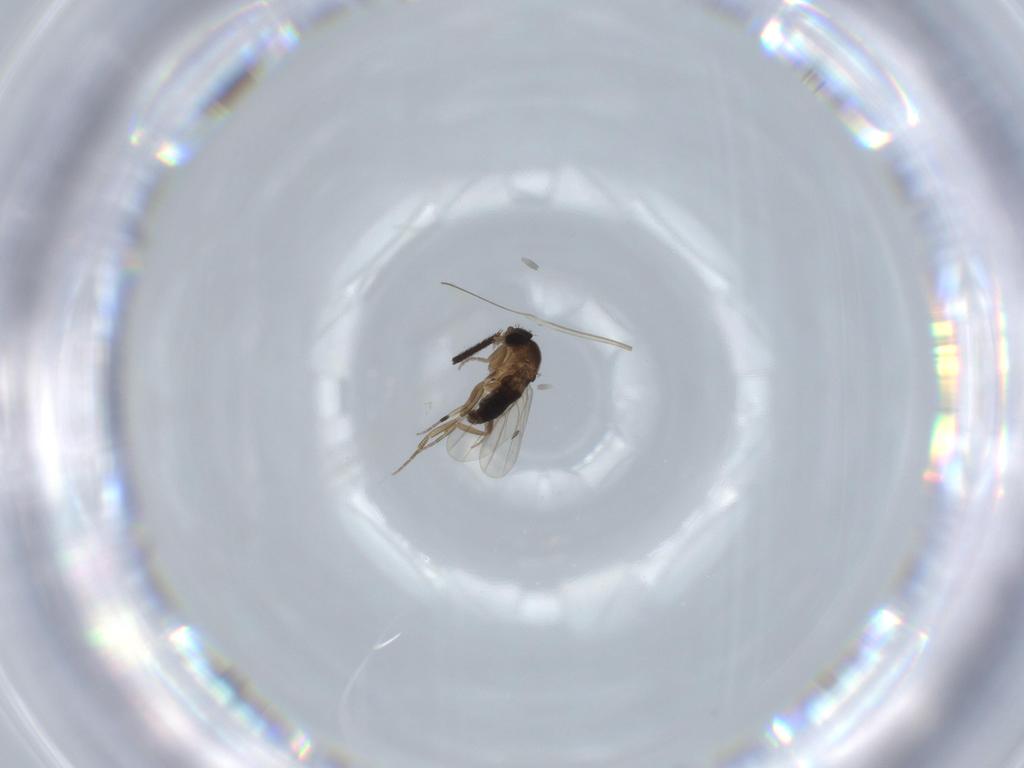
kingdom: Animalia
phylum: Arthropoda
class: Insecta
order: Diptera
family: Phoridae
